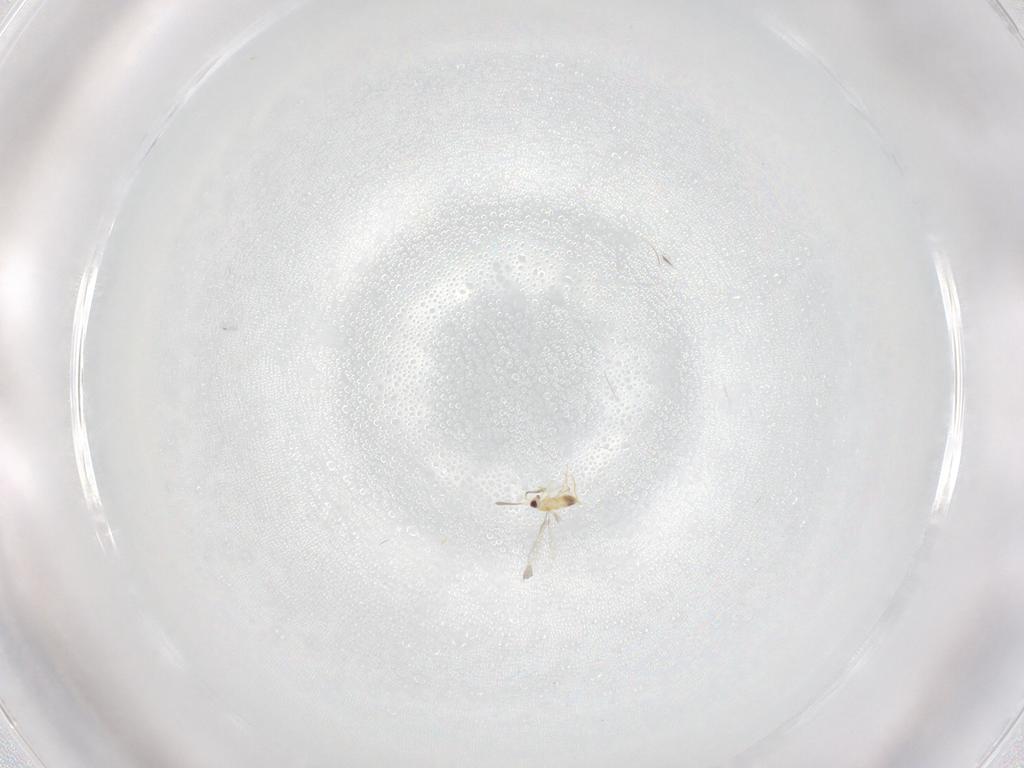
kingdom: Animalia
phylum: Arthropoda
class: Insecta
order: Hymenoptera
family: Mymaridae
